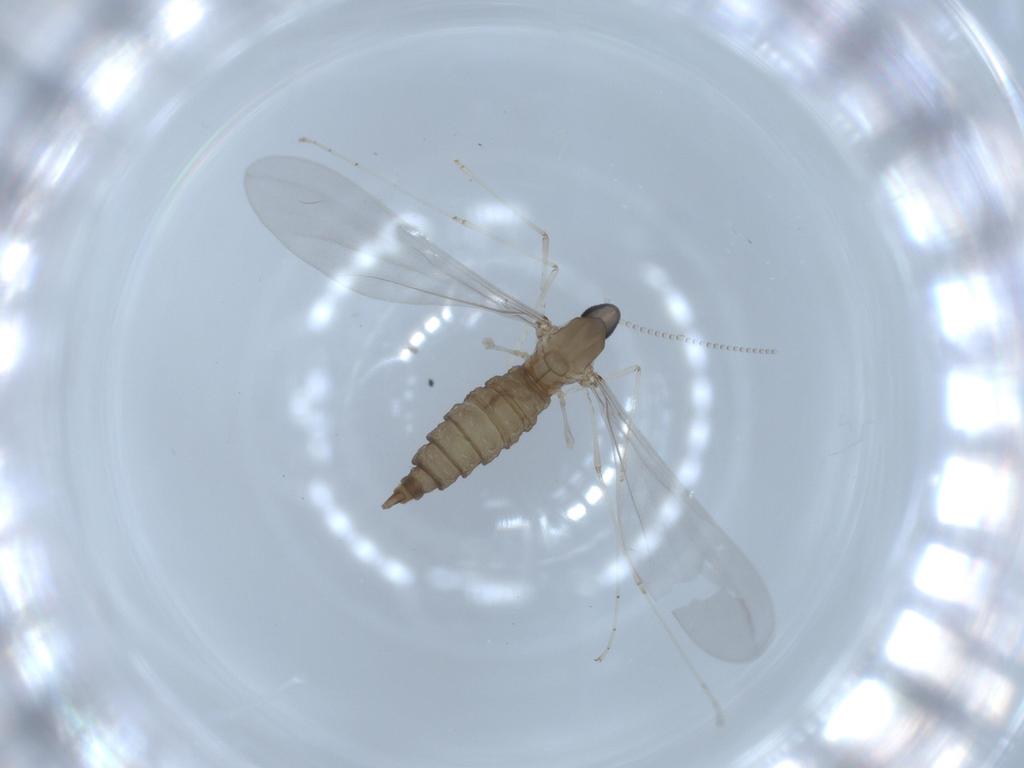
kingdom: Animalia
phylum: Arthropoda
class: Insecta
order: Diptera
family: Cecidomyiidae
